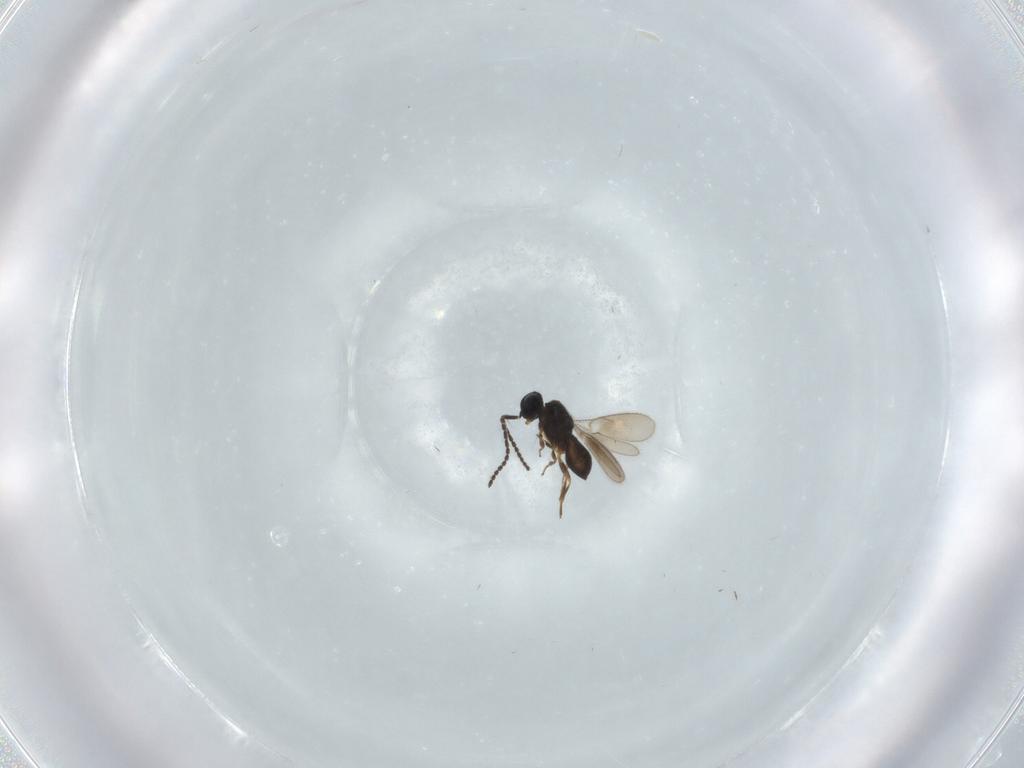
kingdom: Animalia
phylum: Arthropoda
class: Insecta
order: Hymenoptera
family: Scelionidae
